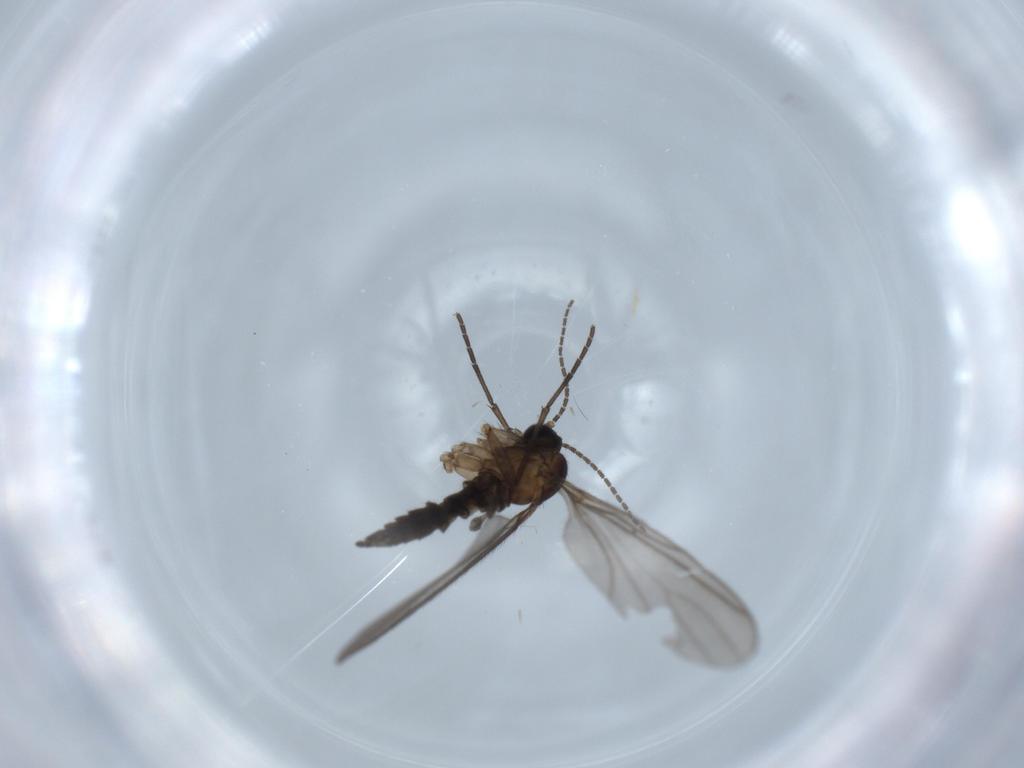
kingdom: Animalia
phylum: Arthropoda
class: Insecta
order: Diptera
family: Sciaridae
